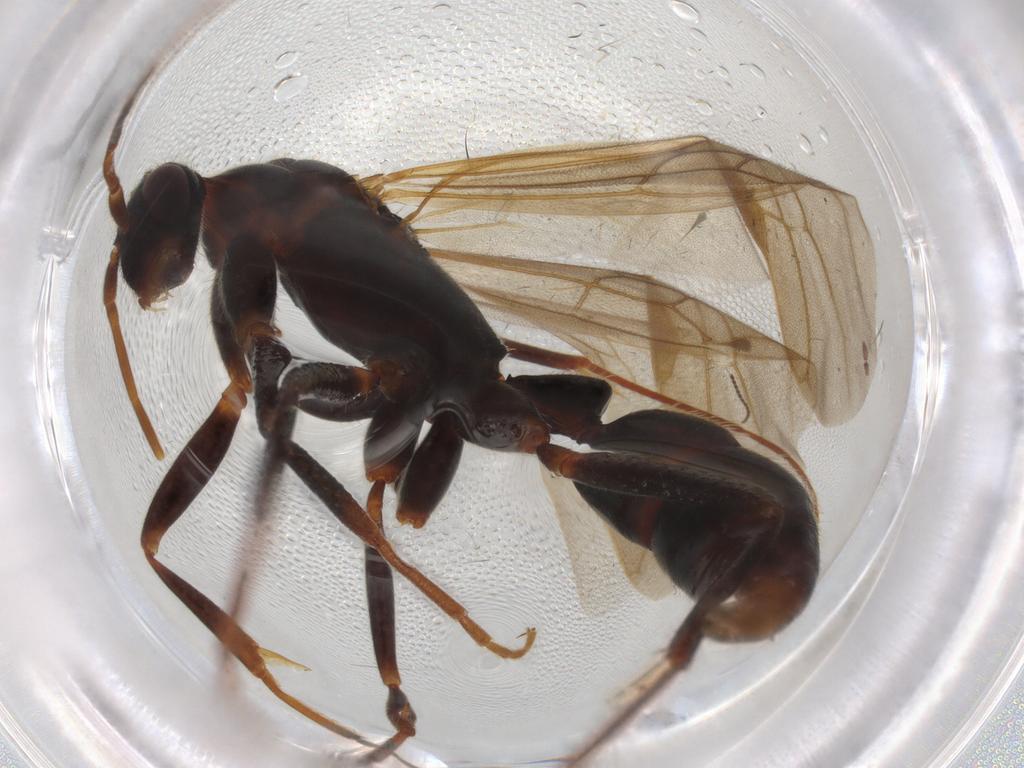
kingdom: Animalia
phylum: Arthropoda
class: Insecta
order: Hymenoptera
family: Formicidae
